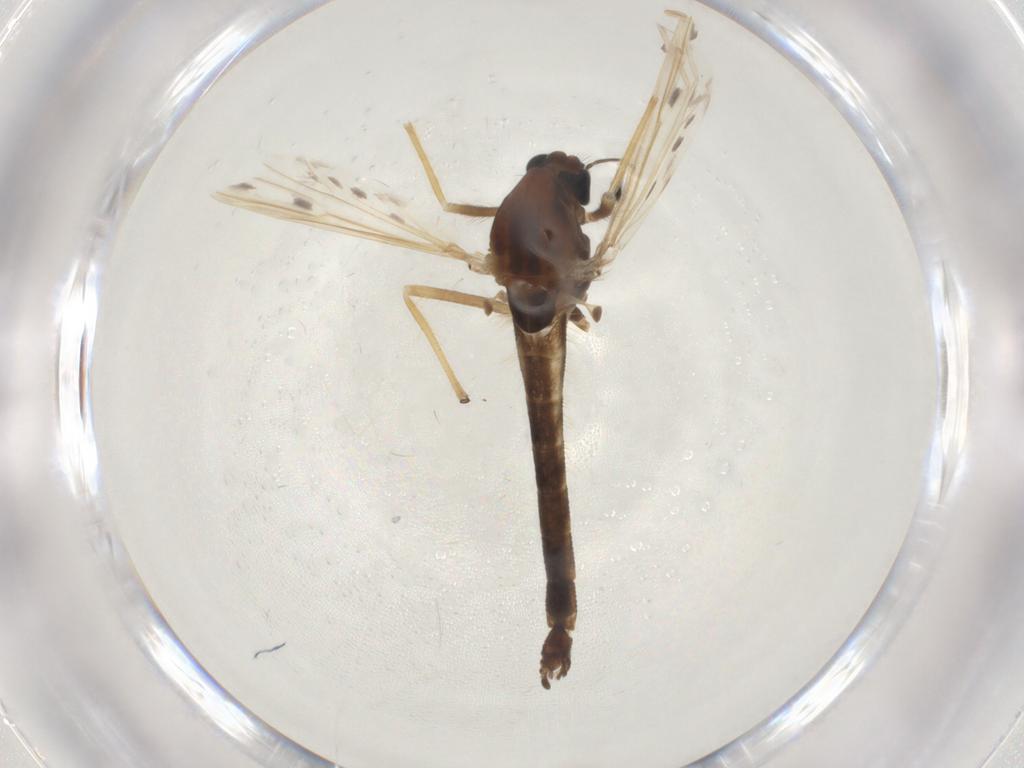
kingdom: Animalia
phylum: Arthropoda
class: Insecta
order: Diptera
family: Chironomidae
